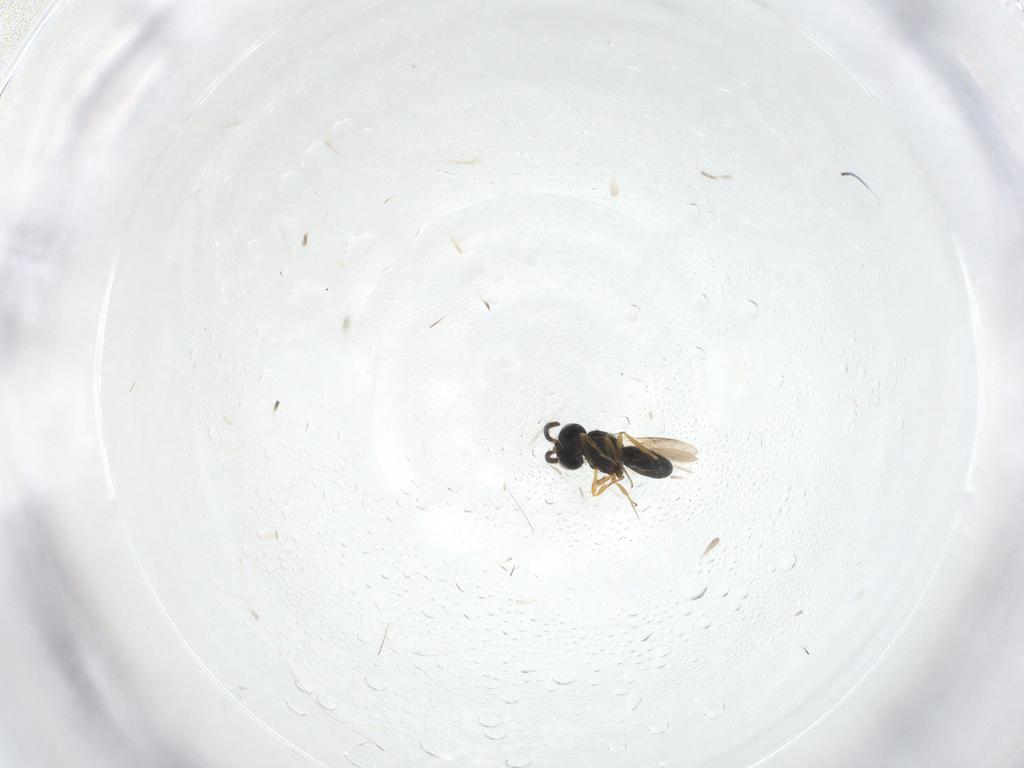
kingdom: Animalia
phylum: Arthropoda
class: Insecta
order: Hymenoptera
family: Scelionidae
